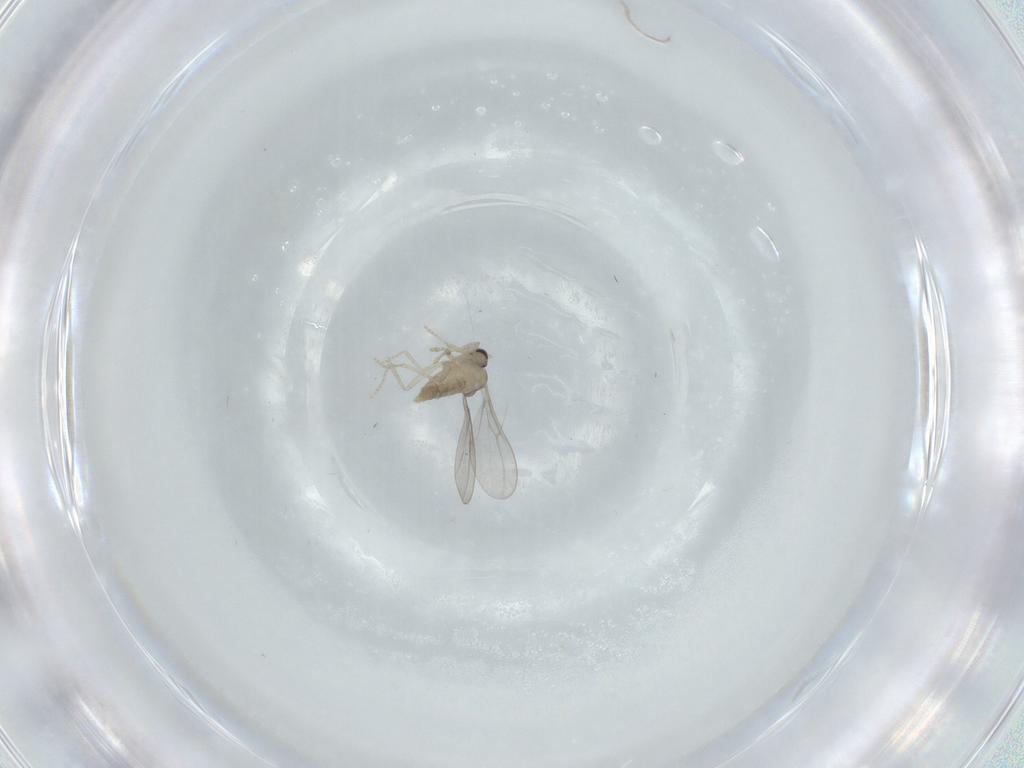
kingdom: Animalia
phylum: Arthropoda
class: Insecta
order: Diptera
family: Cecidomyiidae
